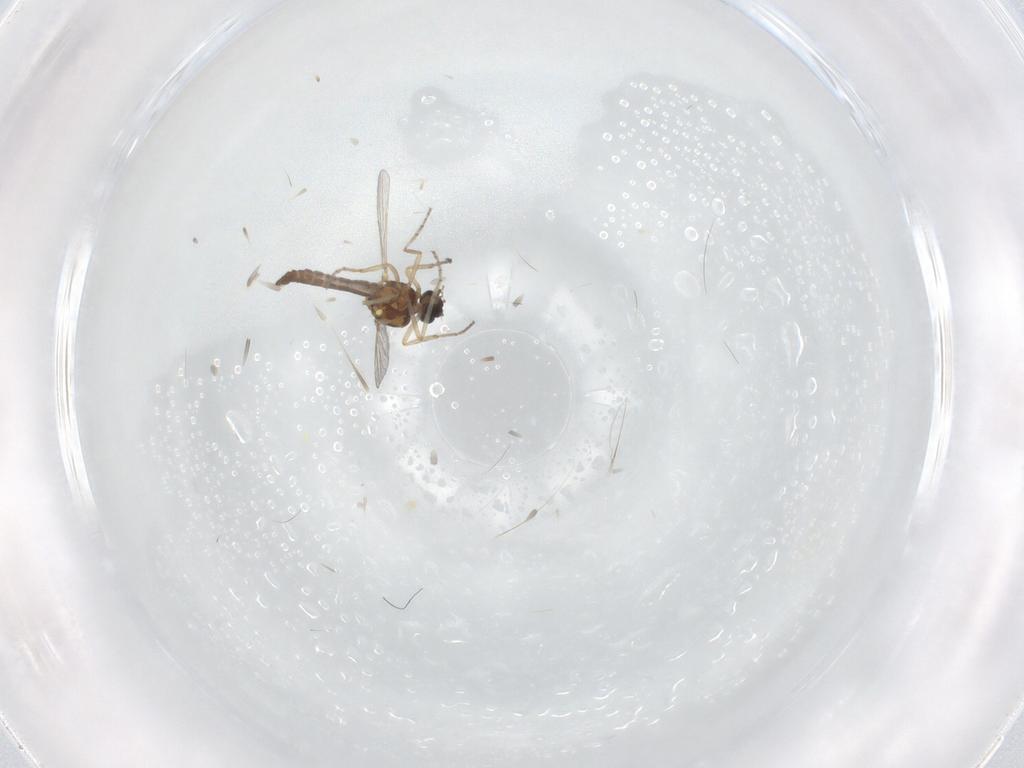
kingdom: Animalia
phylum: Arthropoda
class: Insecta
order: Diptera
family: Ceratopogonidae
